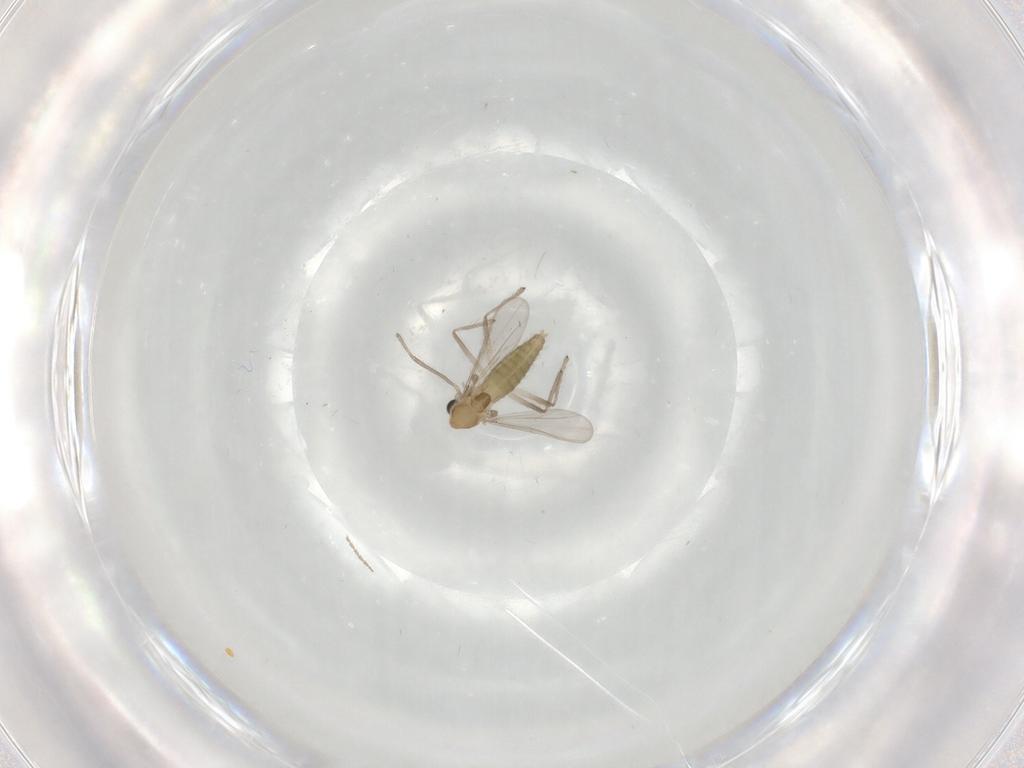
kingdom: Animalia
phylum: Arthropoda
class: Insecta
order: Diptera
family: Chironomidae
